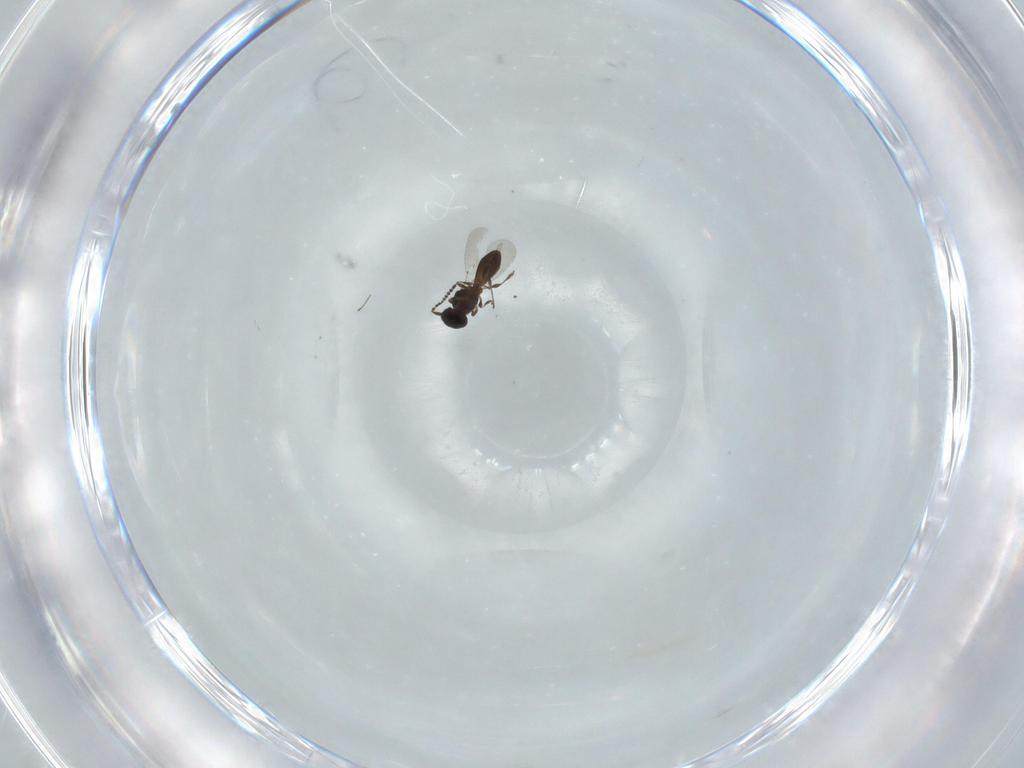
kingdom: Animalia
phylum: Arthropoda
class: Insecta
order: Hymenoptera
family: Platygastridae
